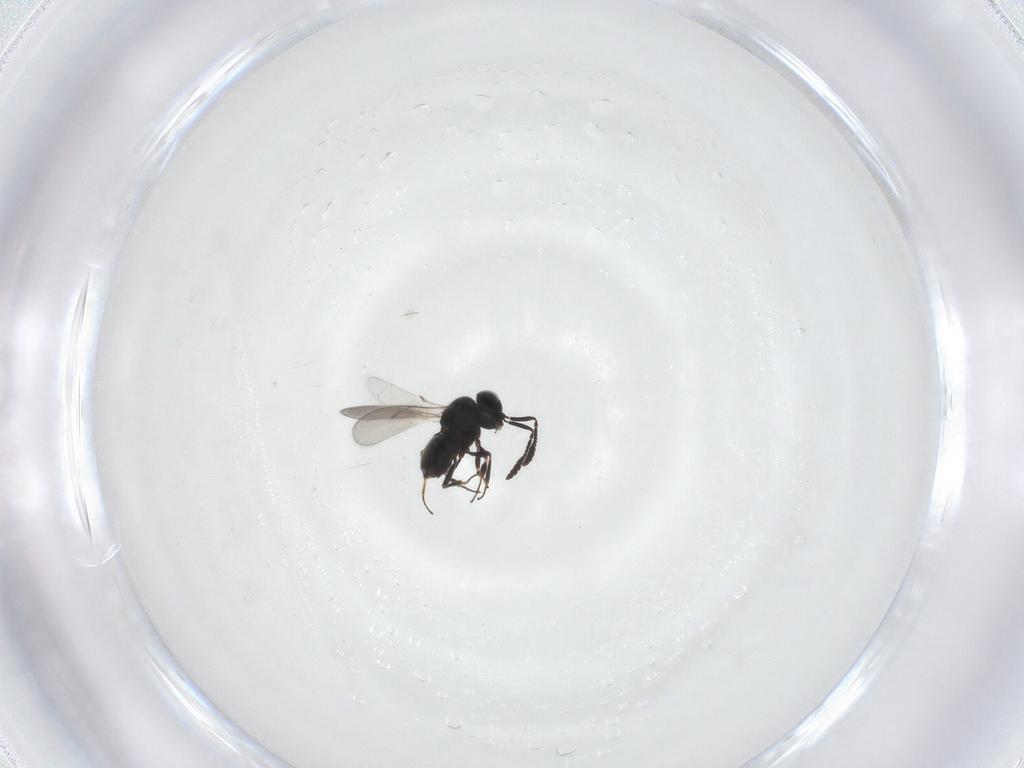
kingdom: Animalia
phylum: Arthropoda
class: Insecta
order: Hymenoptera
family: Scelionidae
